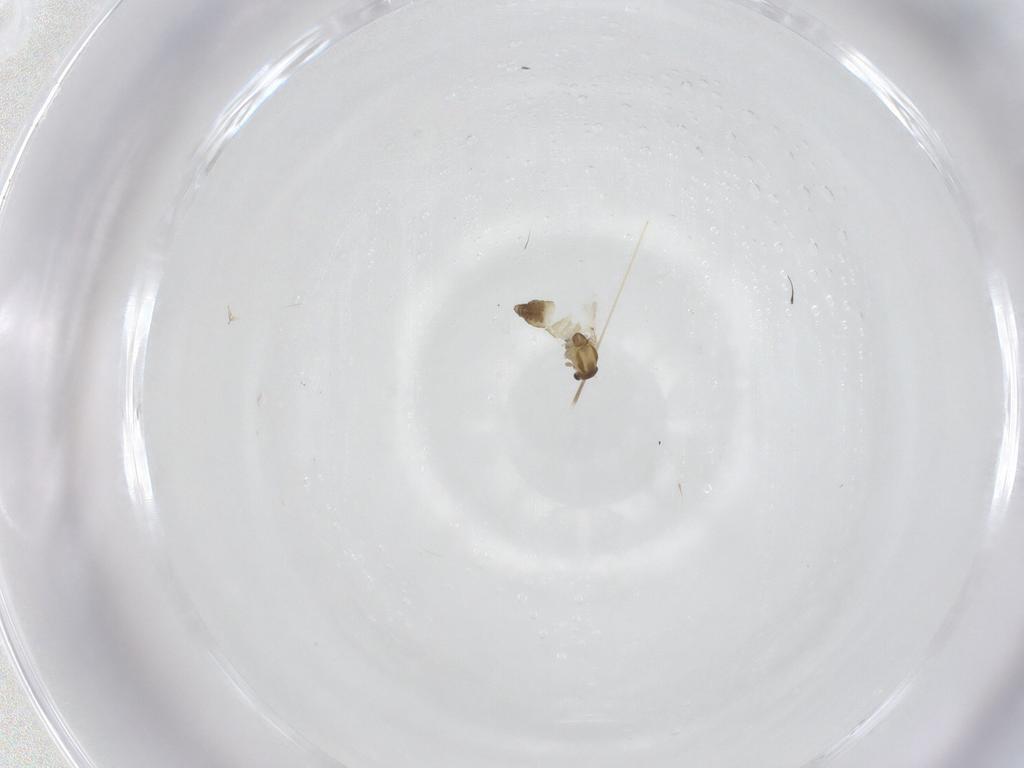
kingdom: Animalia
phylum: Arthropoda
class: Insecta
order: Diptera
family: Chironomidae
